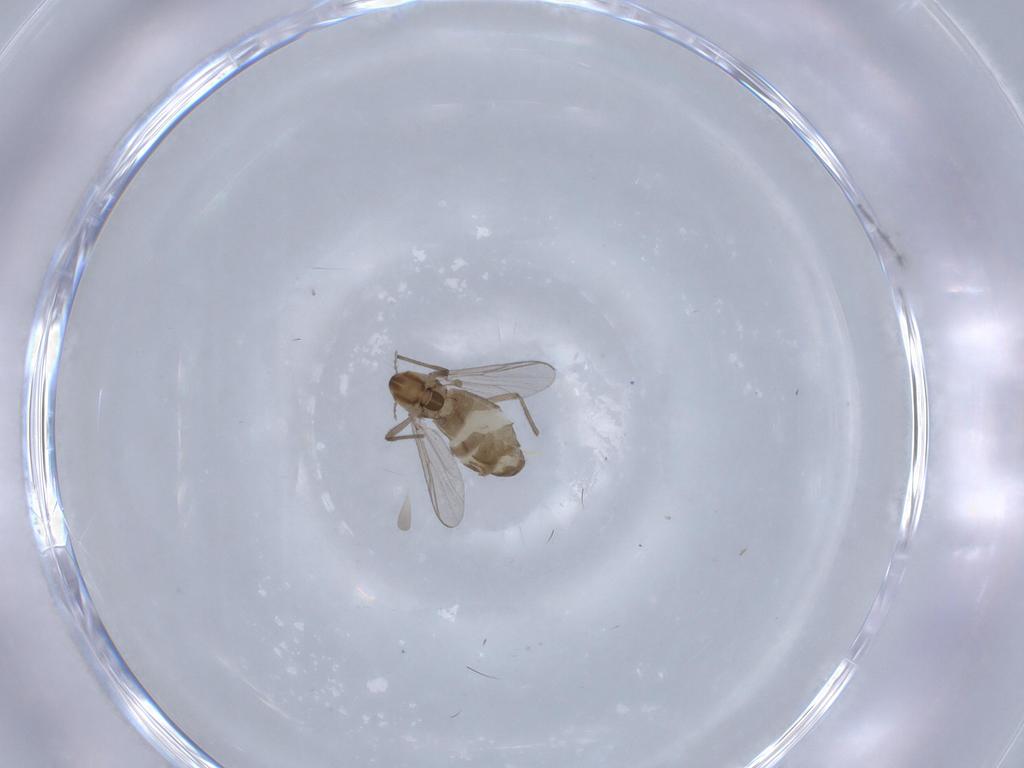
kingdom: Animalia
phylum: Arthropoda
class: Insecta
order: Diptera
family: Chironomidae
